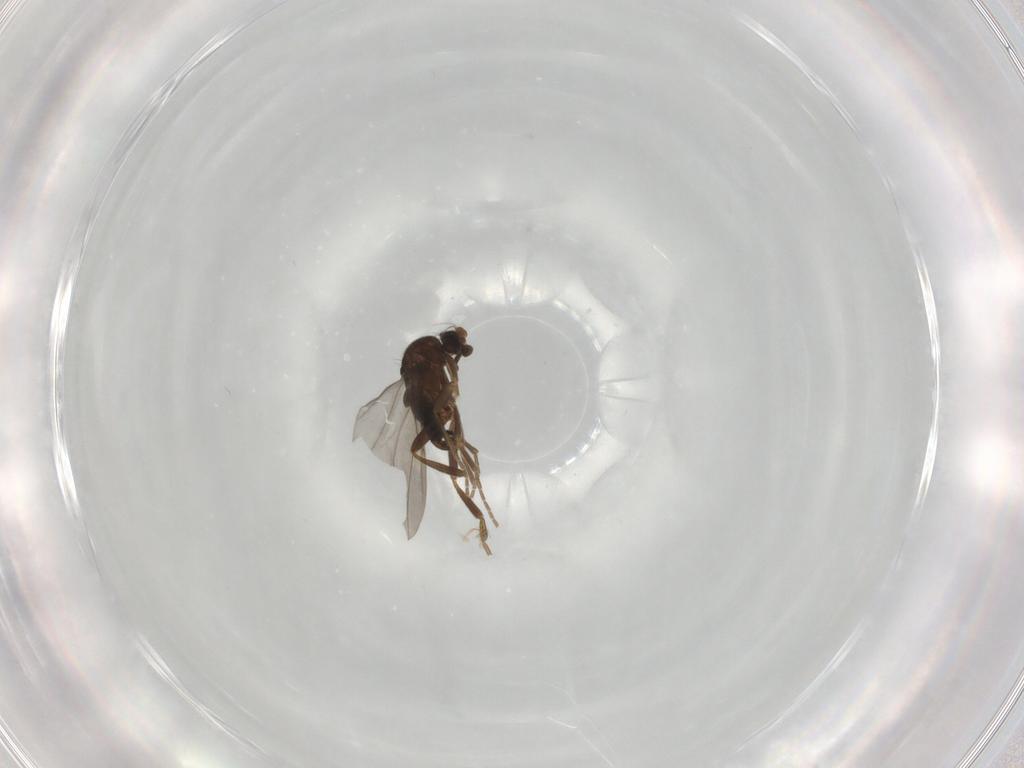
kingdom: Animalia
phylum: Arthropoda
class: Insecta
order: Diptera
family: Phoridae
